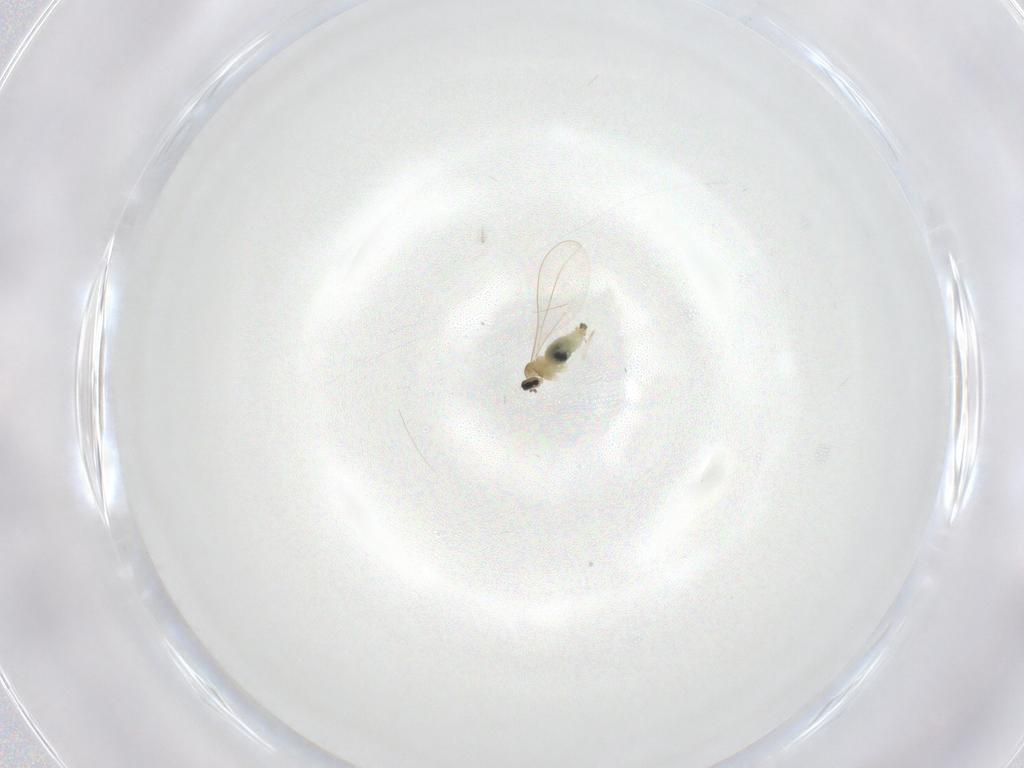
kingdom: Animalia
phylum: Arthropoda
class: Insecta
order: Diptera
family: Cecidomyiidae
